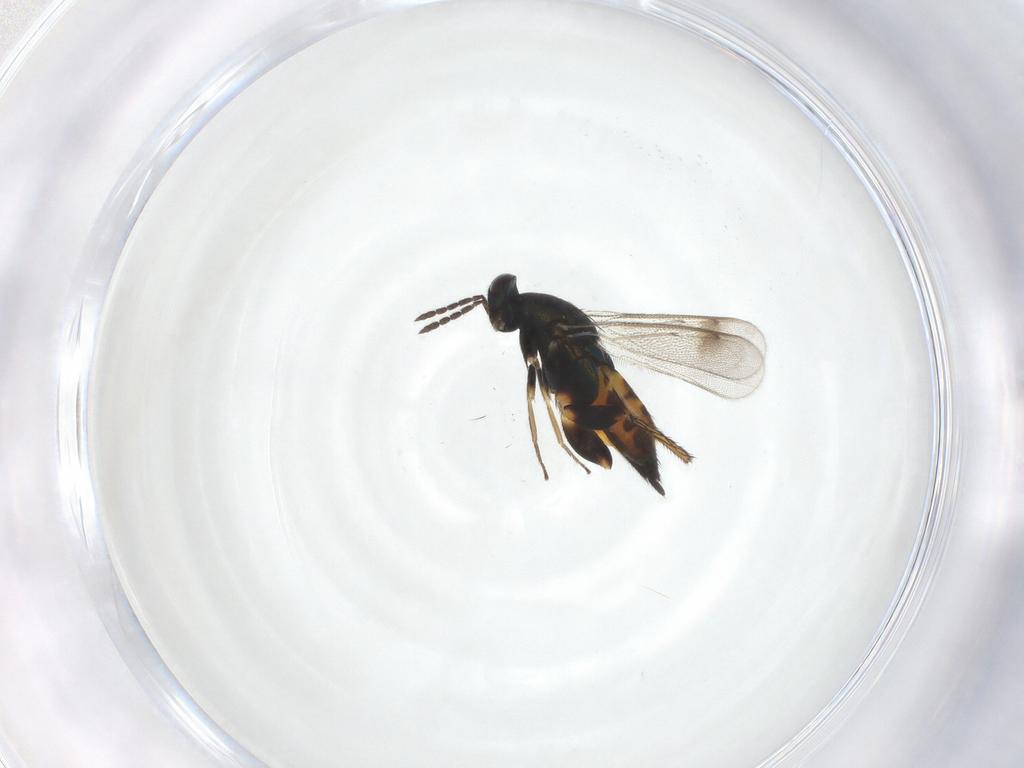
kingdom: Animalia
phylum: Arthropoda
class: Insecta
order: Hymenoptera
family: Eulophidae
